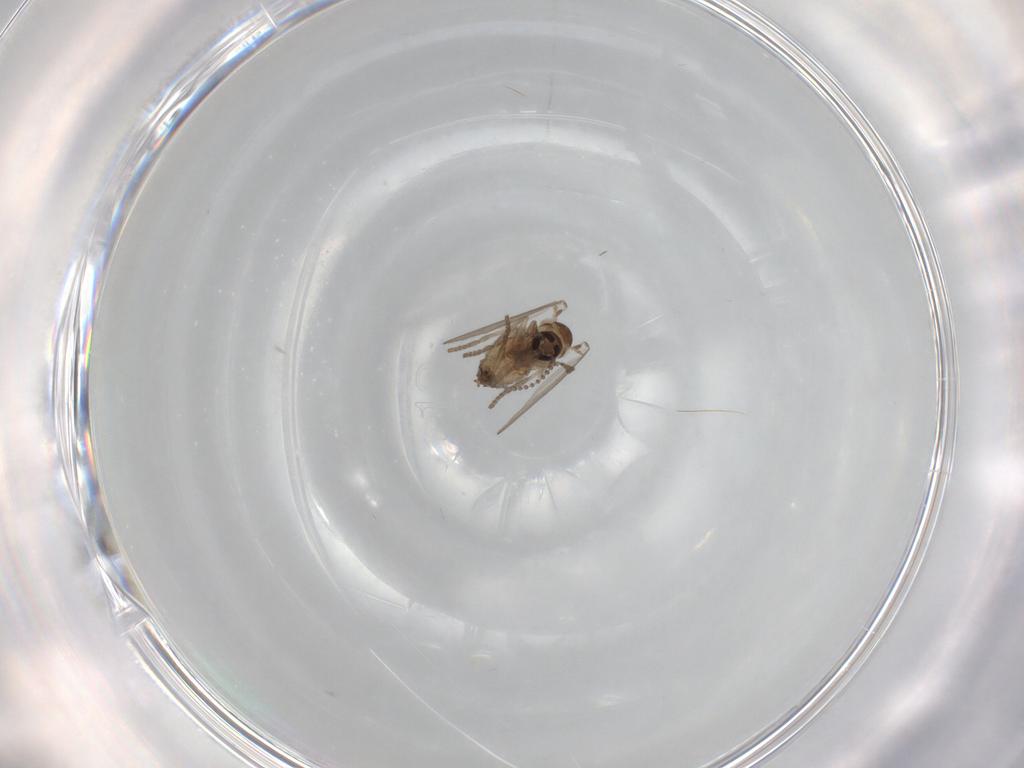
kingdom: Animalia
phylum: Arthropoda
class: Insecta
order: Diptera
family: Psychodidae
